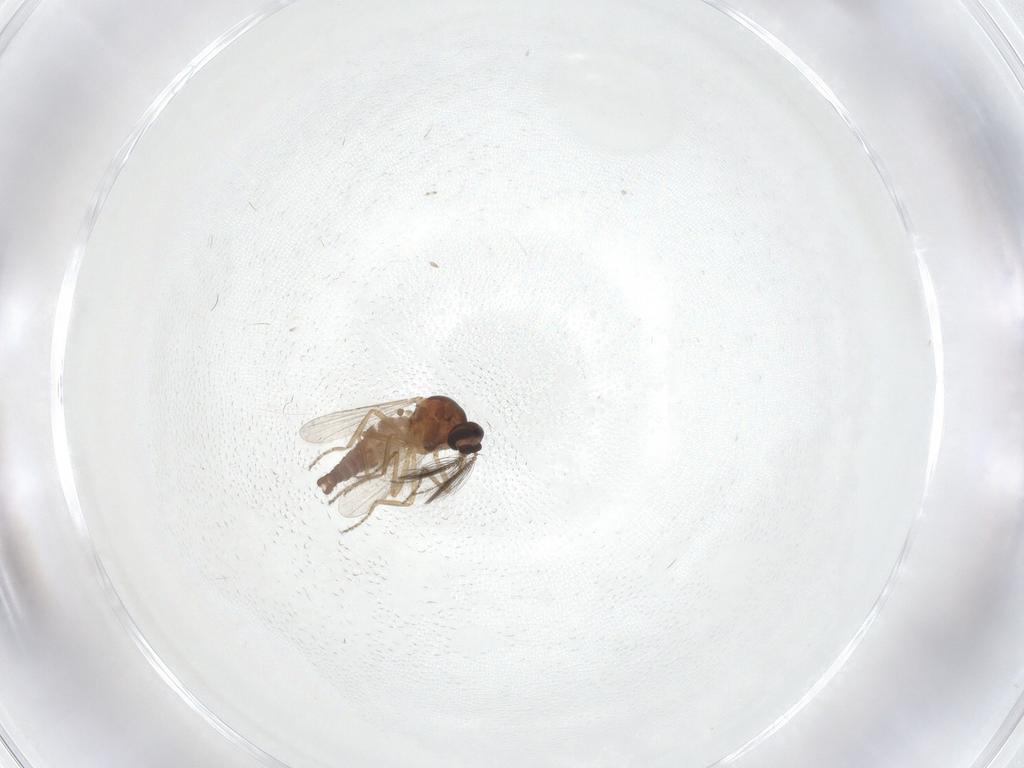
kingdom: Animalia
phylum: Arthropoda
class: Insecta
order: Diptera
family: Ceratopogonidae
